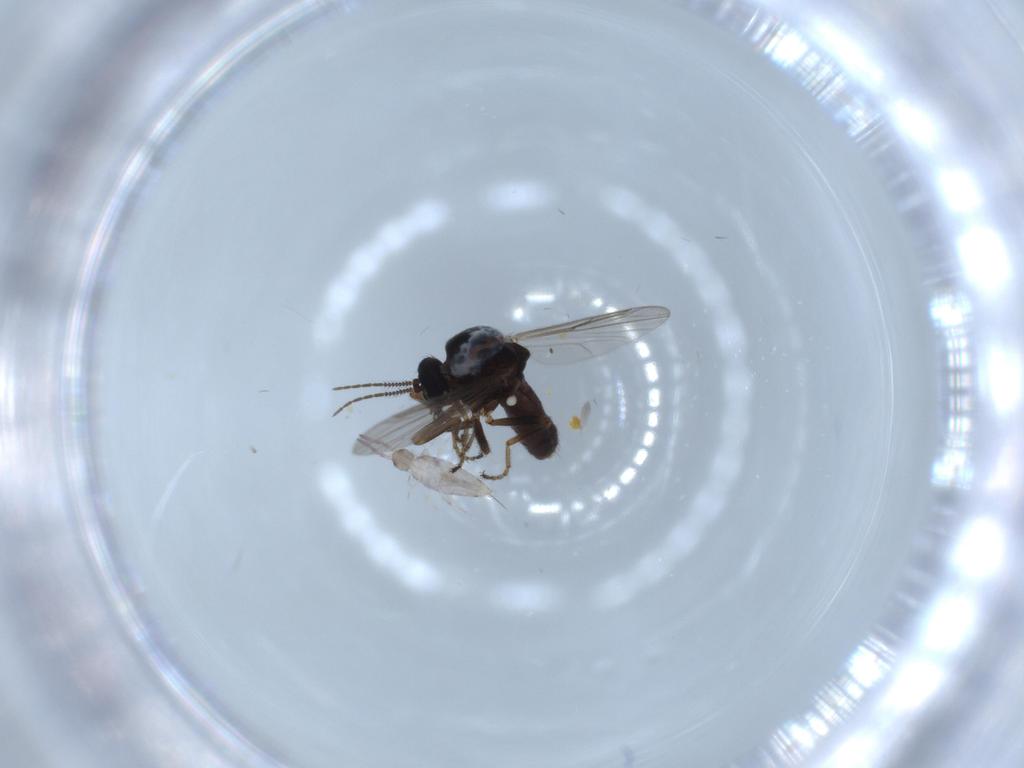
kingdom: Animalia
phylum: Arthropoda
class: Insecta
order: Diptera
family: Ceratopogonidae
